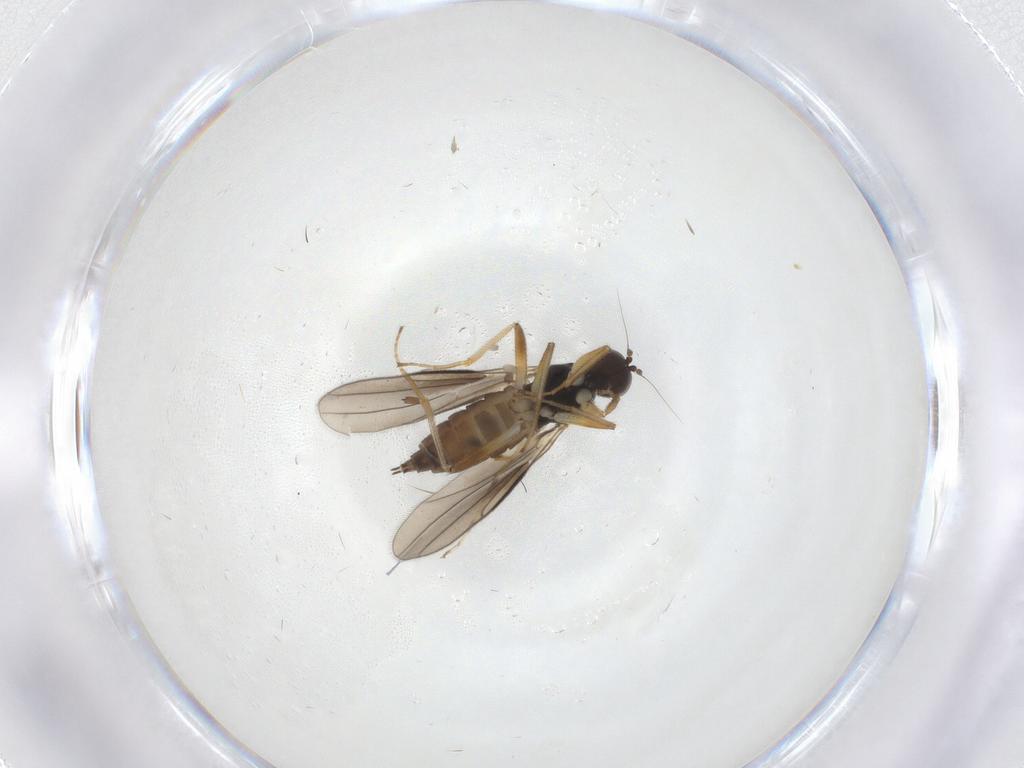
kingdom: Animalia
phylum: Arthropoda
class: Insecta
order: Diptera
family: Hybotidae
